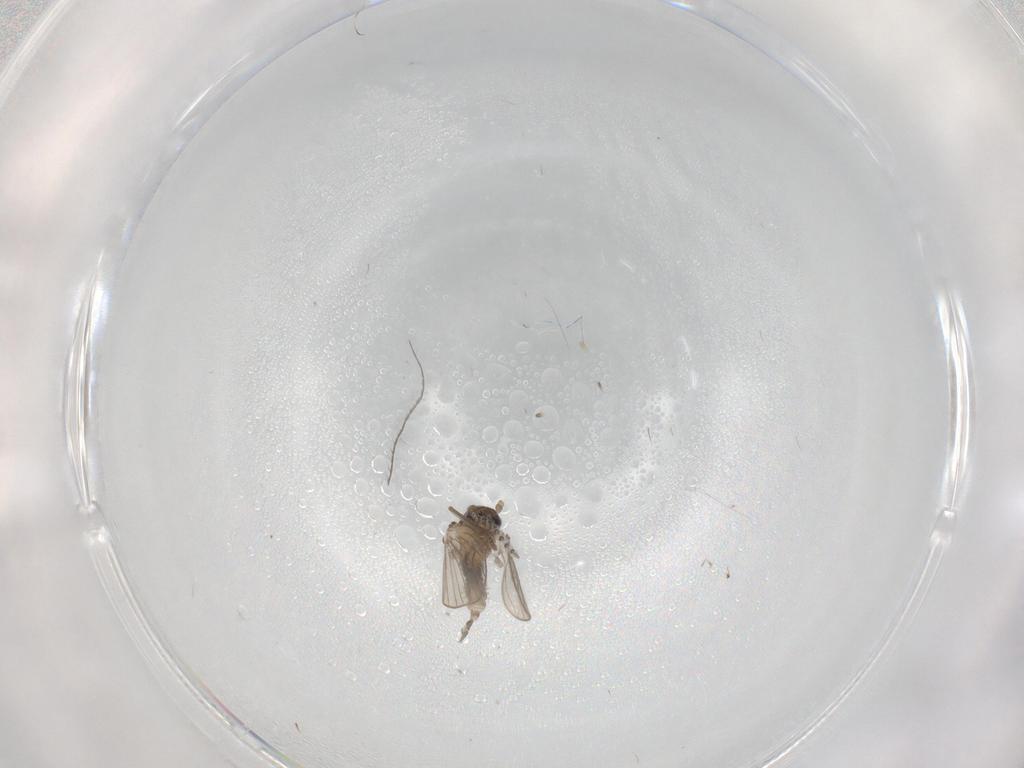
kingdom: Animalia
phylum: Arthropoda
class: Insecta
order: Diptera
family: Psychodidae
